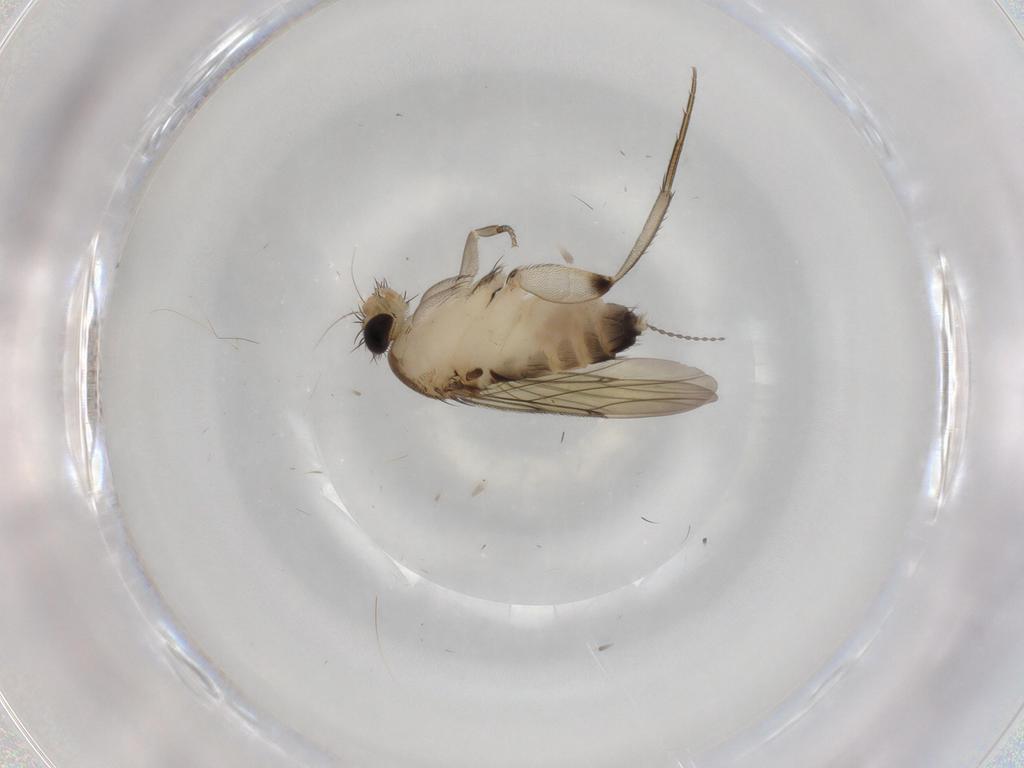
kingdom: Animalia
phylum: Arthropoda
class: Insecta
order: Diptera
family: Phoridae
